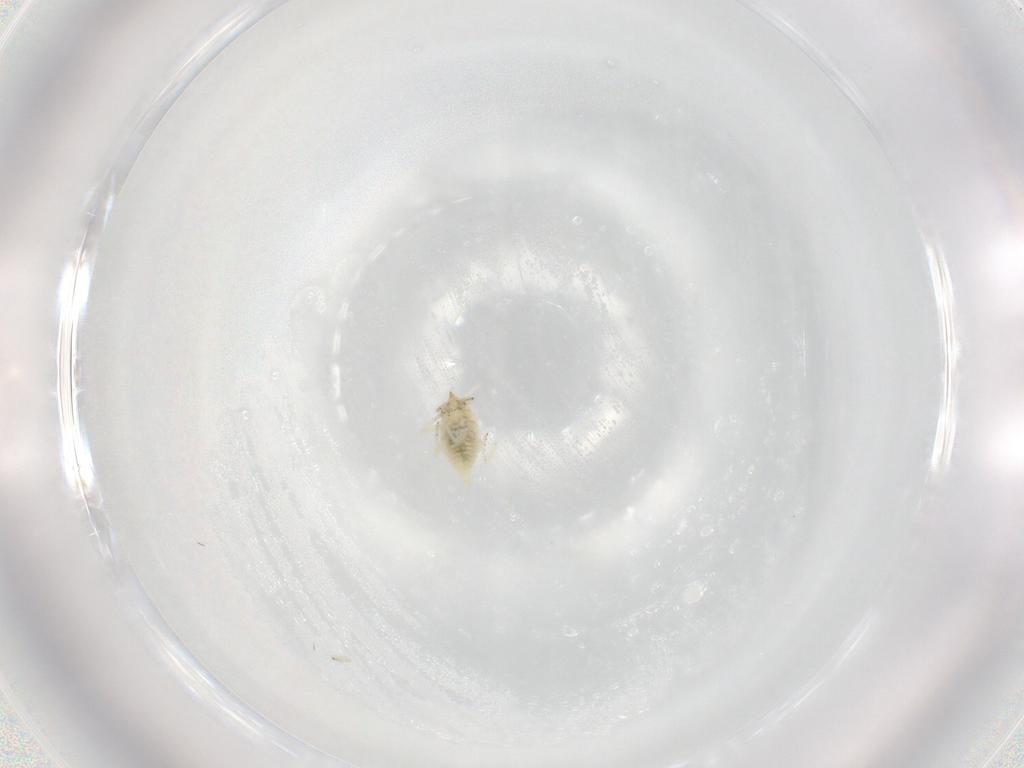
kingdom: Animalia
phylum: Arthropoda
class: Insecta
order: Neuroptera
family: Coniopterygidae
